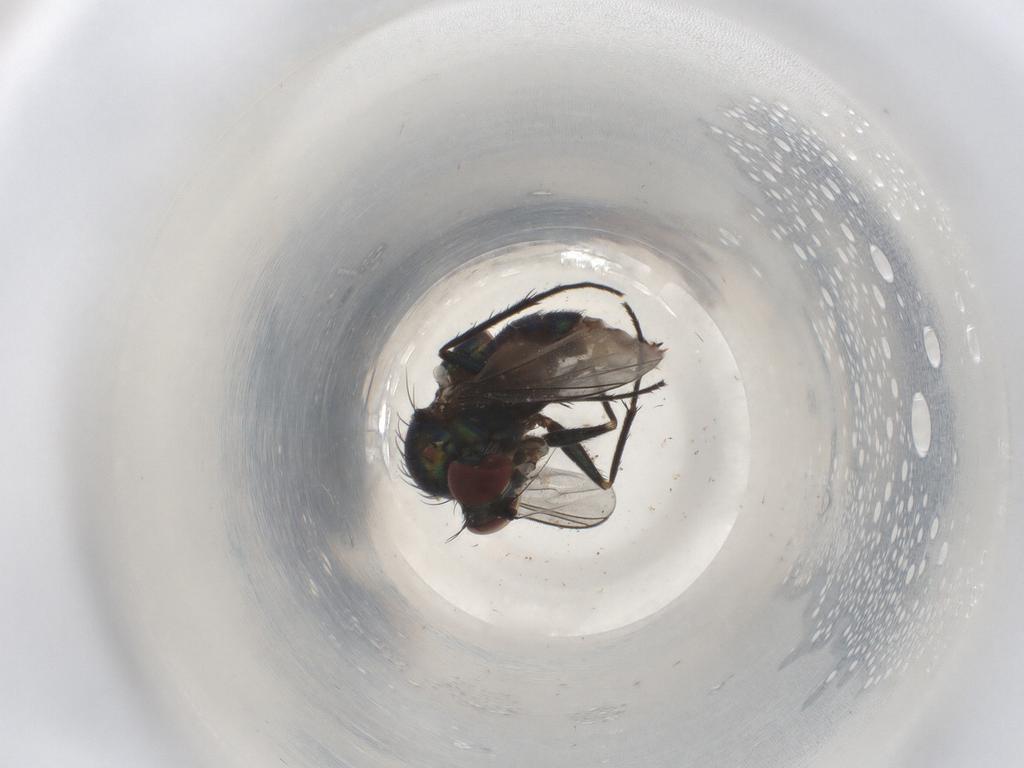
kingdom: Animalia
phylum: Arthropoda
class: Insecta
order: Diptera
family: Dolichopodidae
